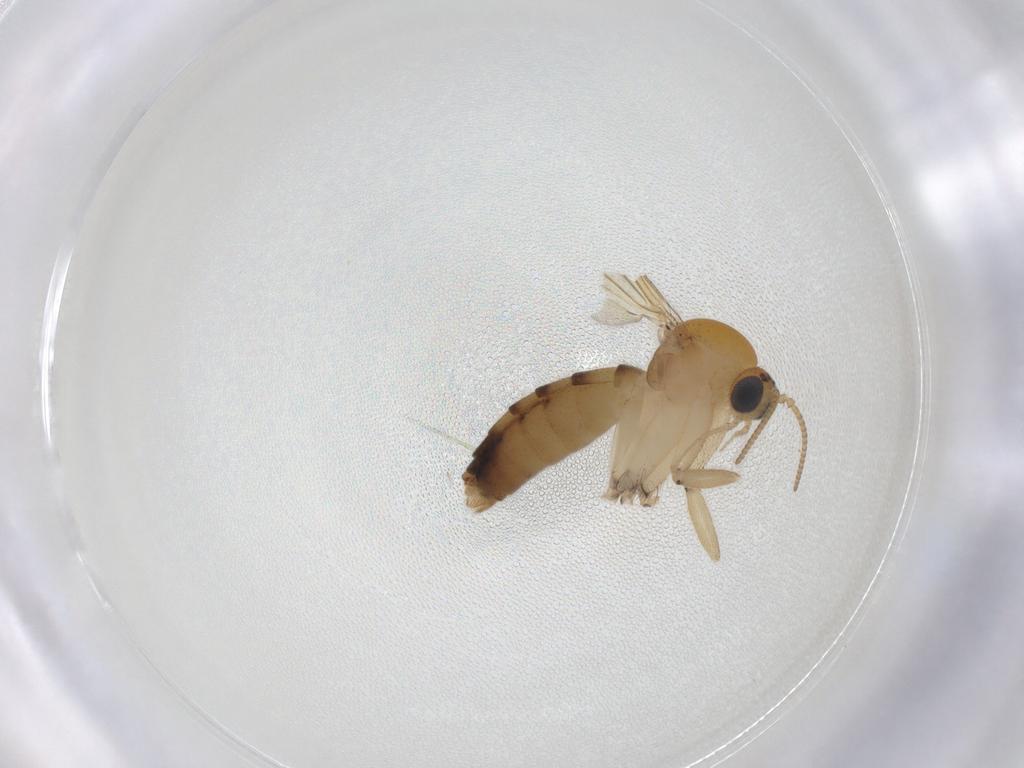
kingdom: Animalia
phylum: Arthropoda
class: Insecta
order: Diptera
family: Mycetophilidae
